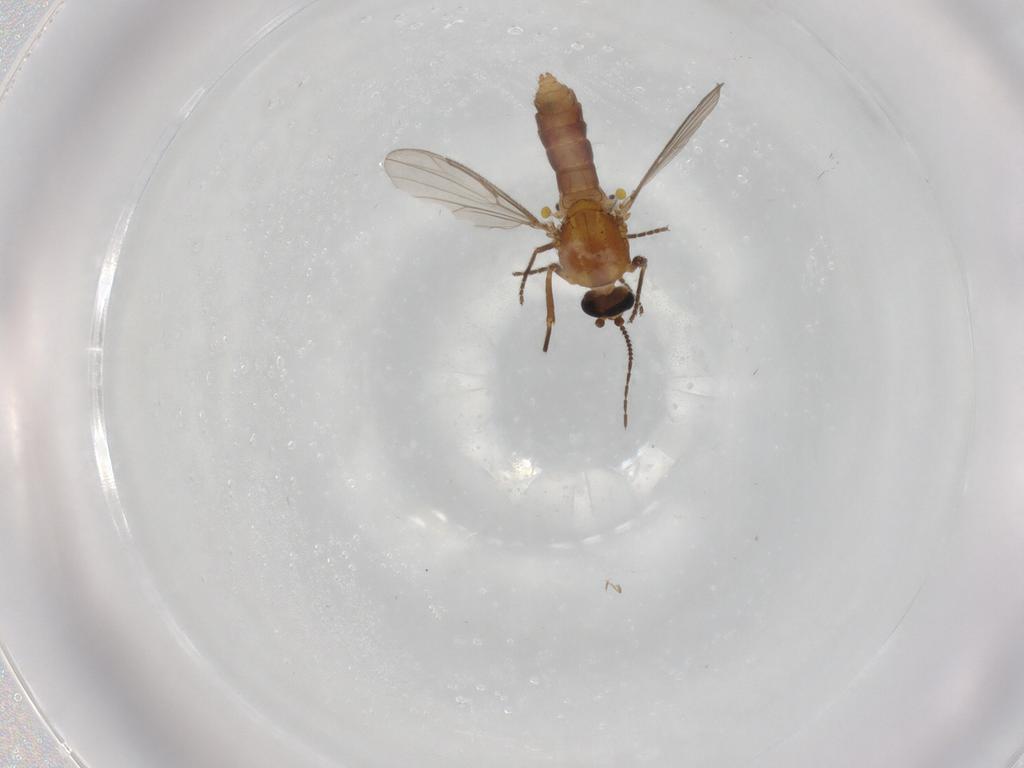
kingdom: Animalia
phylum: Arthropoda
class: Insecta
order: Diptera
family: Ceratopogonidae
